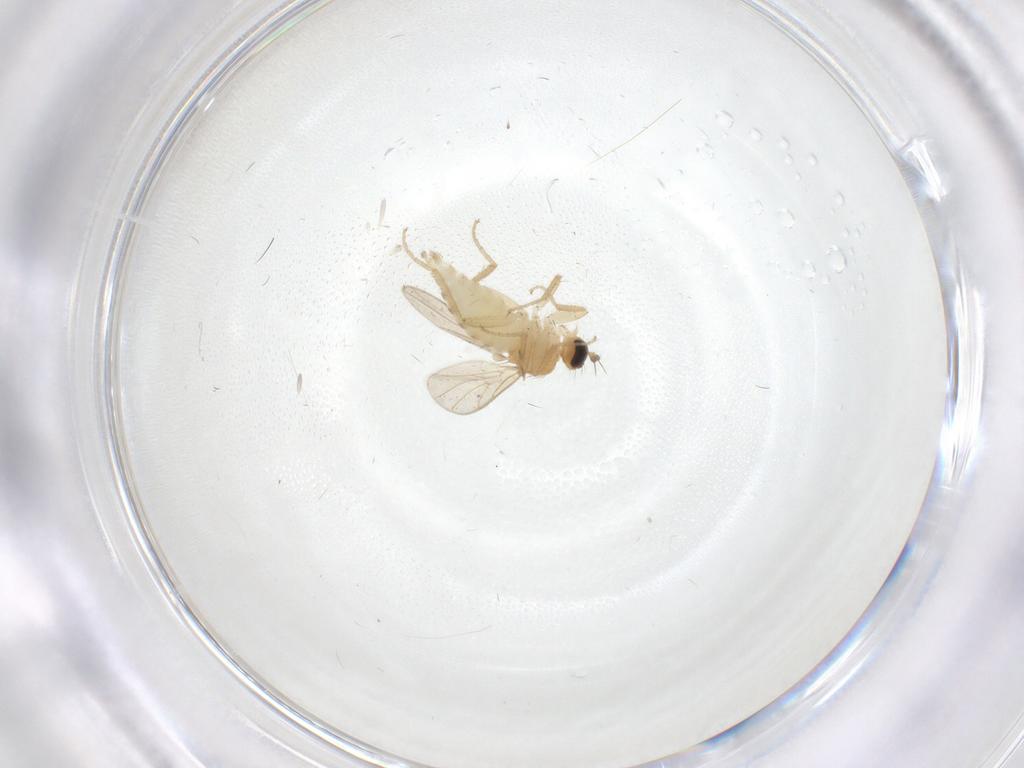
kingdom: Animalia
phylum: Arthropoda
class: Insecta
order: Diptera
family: Hybotidae
